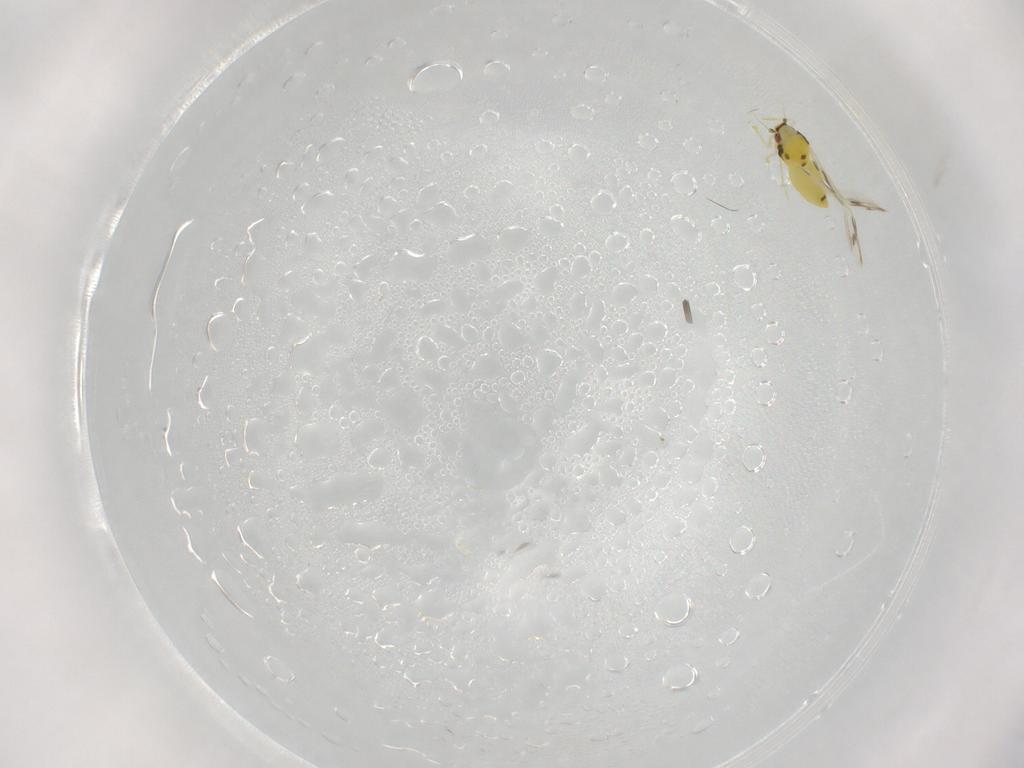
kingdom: Animalia
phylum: Arthropoda
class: Insecta
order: Hemiptera
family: Aleyrodidae
